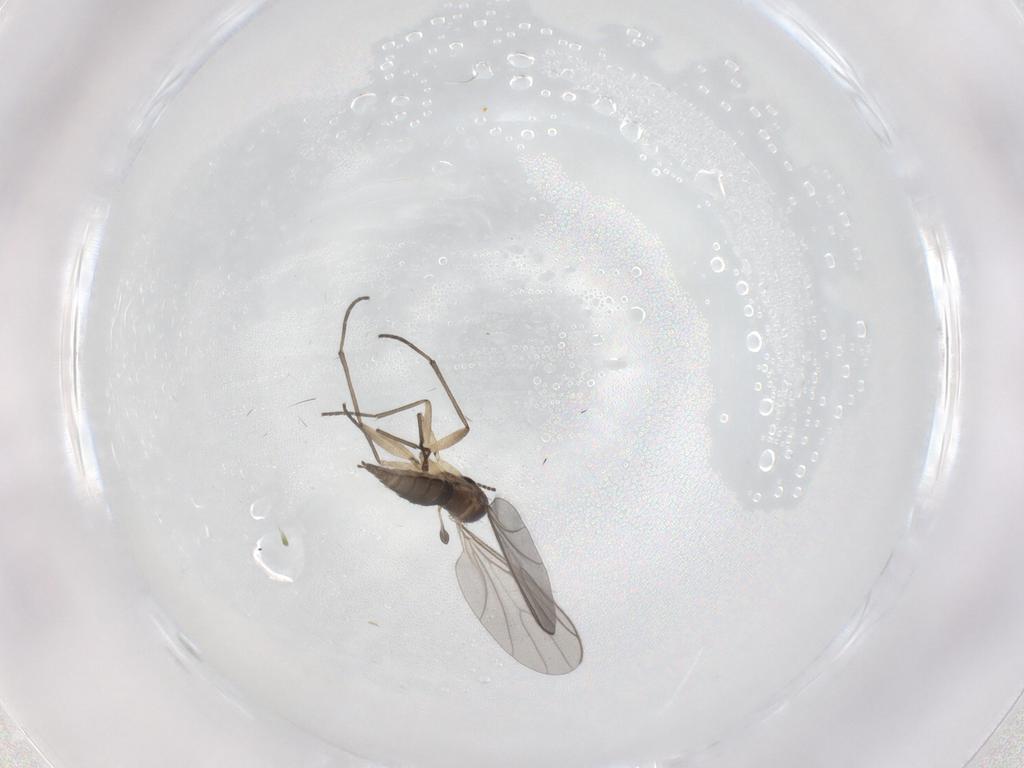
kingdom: Animalia
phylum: Arthropoda
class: Insecta
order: Diptera
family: Sciaridae
